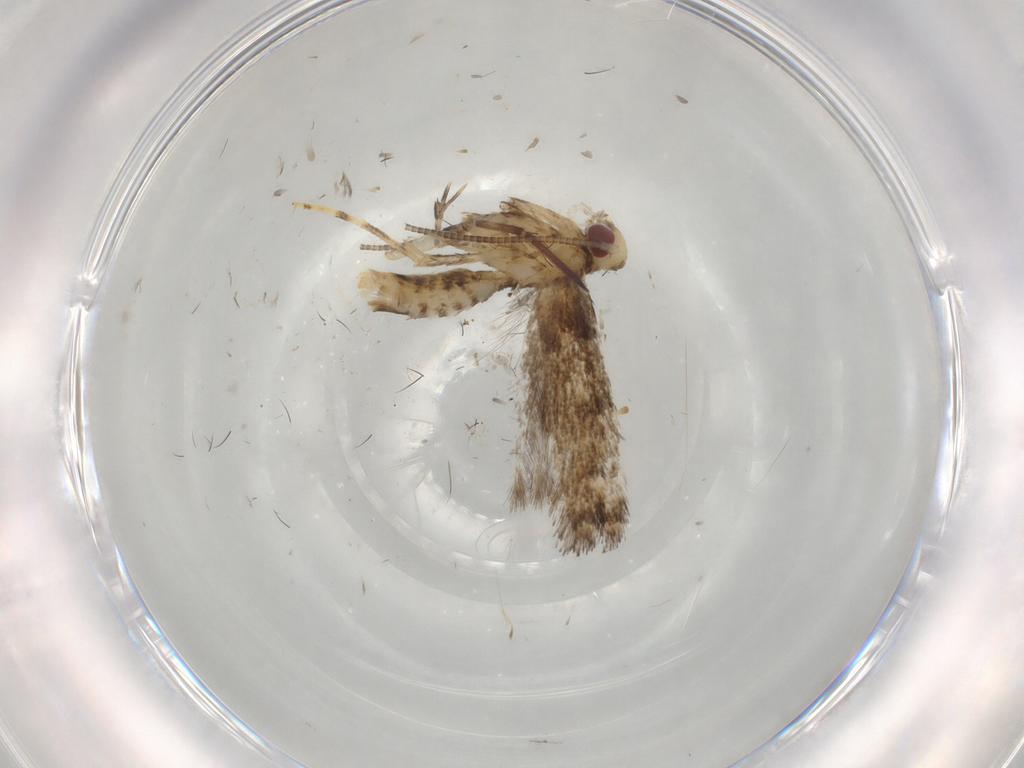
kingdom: Animalia
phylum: Arthropoda
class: Insecta
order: Lepidoptera
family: Gracillariidae
